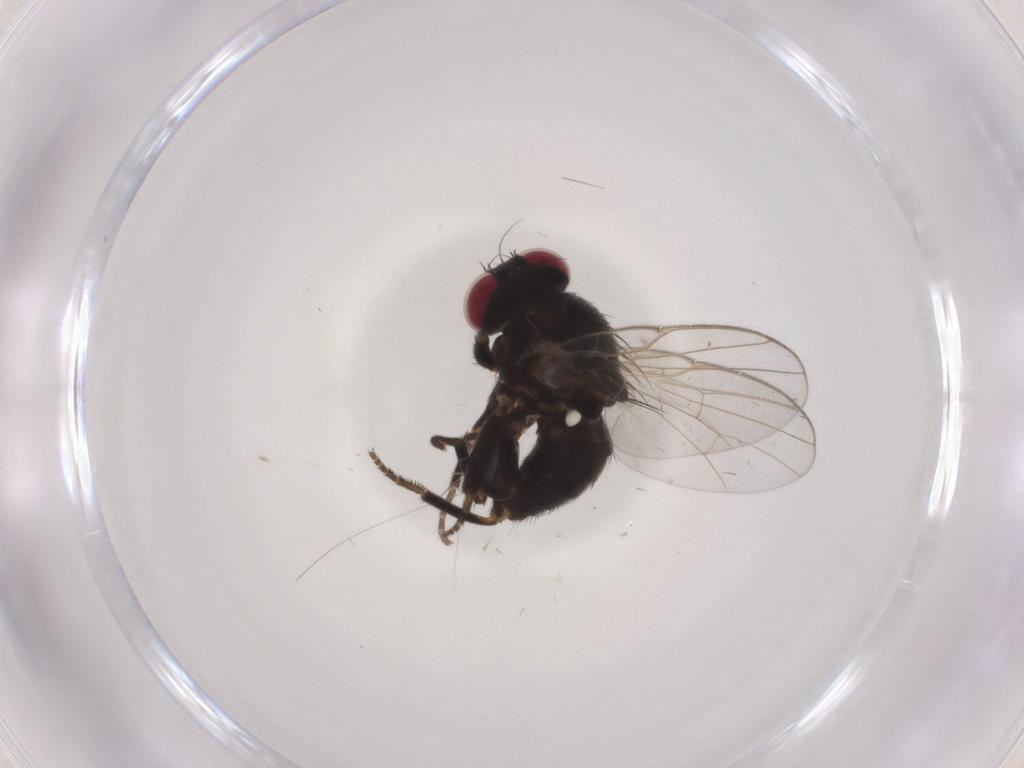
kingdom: Animalia
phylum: Arthropoda
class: Insecta
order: Diptera
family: Agromyzidae
